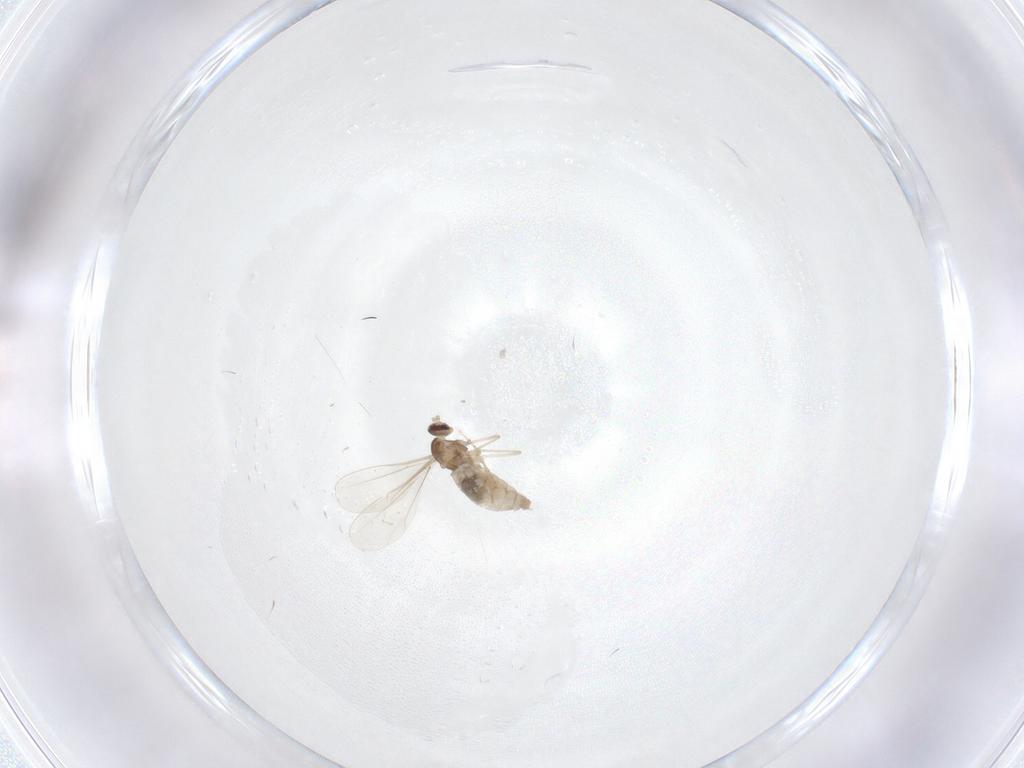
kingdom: Animalia
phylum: Arthropoda
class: Insecta
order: Diptera
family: Cecidomyiidae
